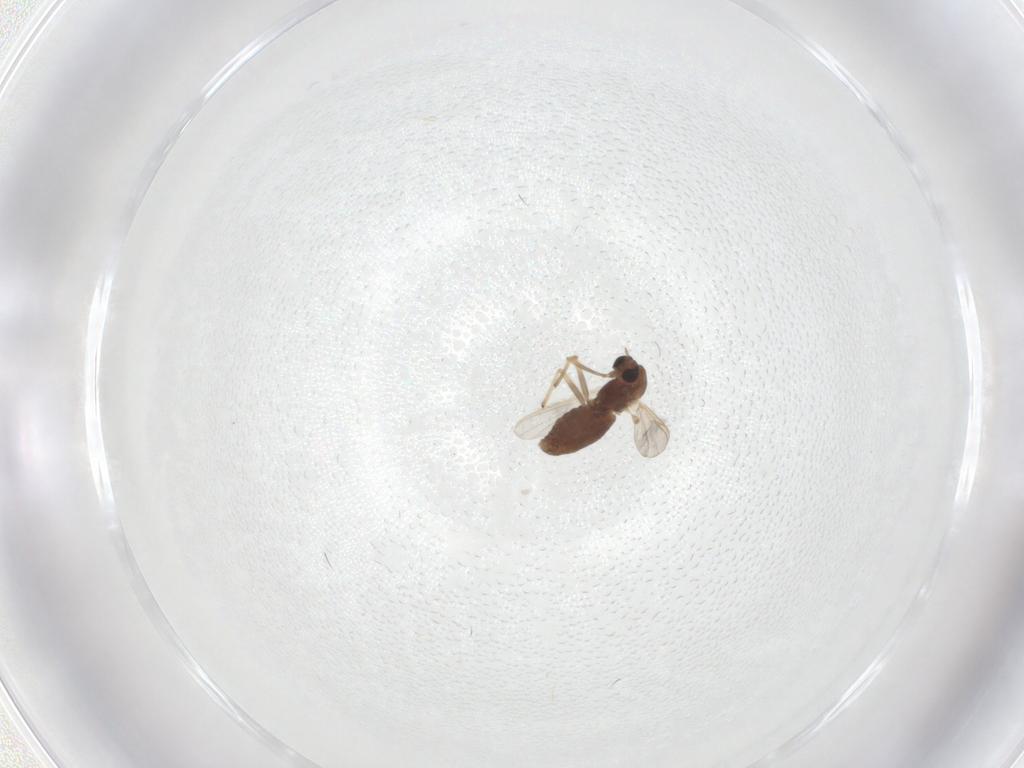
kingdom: Animalia
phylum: Arthropoda
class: Insecta
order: Diptera
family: Chironomidae
